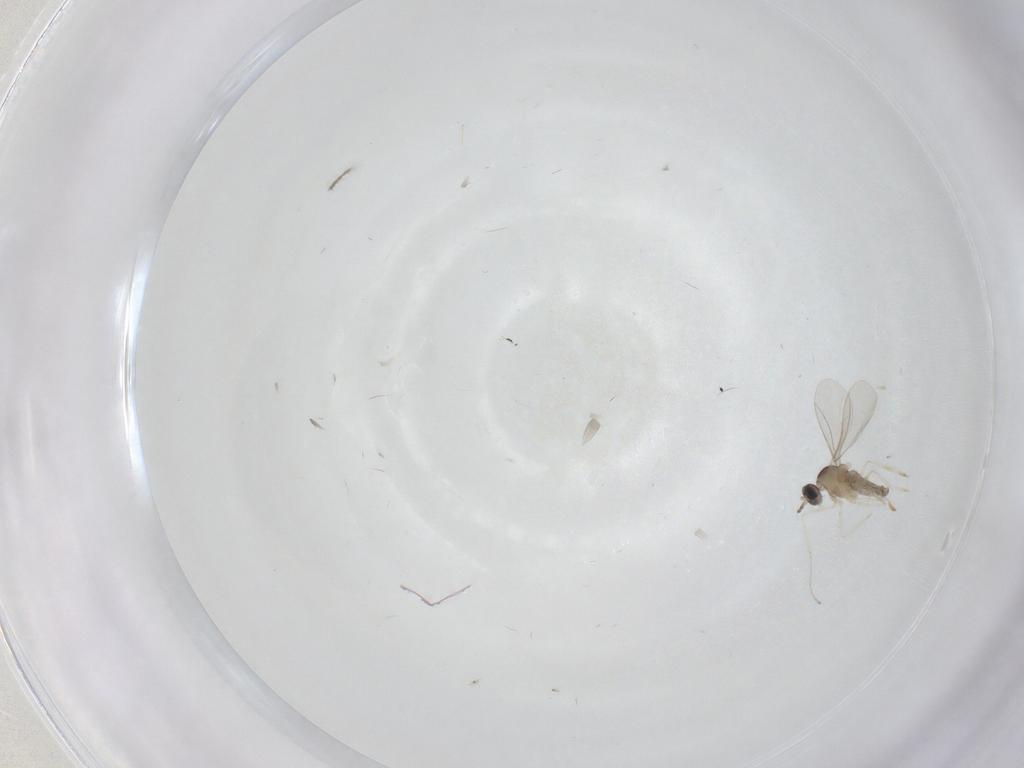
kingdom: Animalia
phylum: Arthropoda
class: Insecta
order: Diptera
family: Cecidomyiidae
